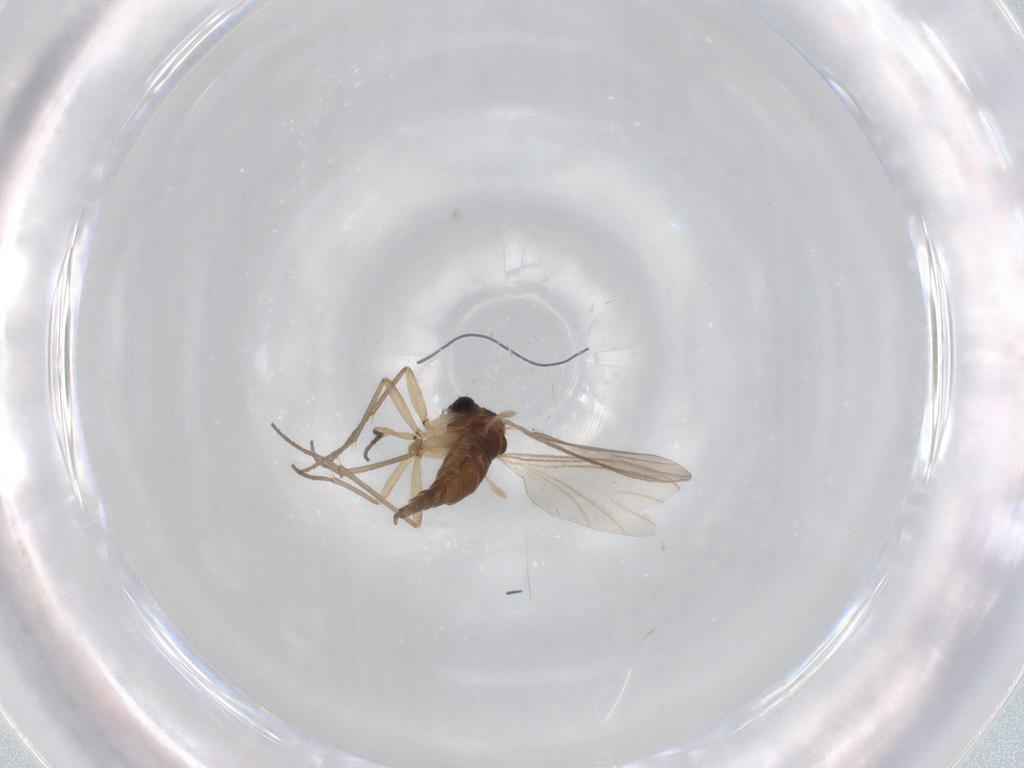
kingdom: Animalia
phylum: Arthropoda
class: Insecta
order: Diptera
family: Sciaridae
